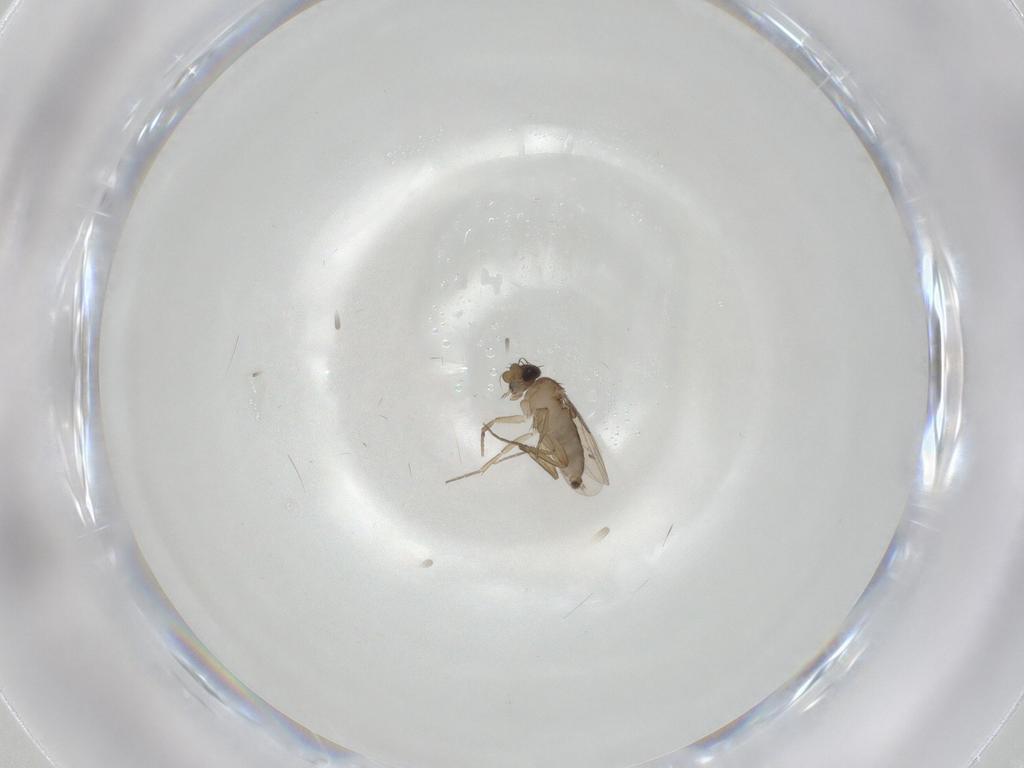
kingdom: Animalia
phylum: Arthropoda
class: Insecta
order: Diptera
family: Phoridae
